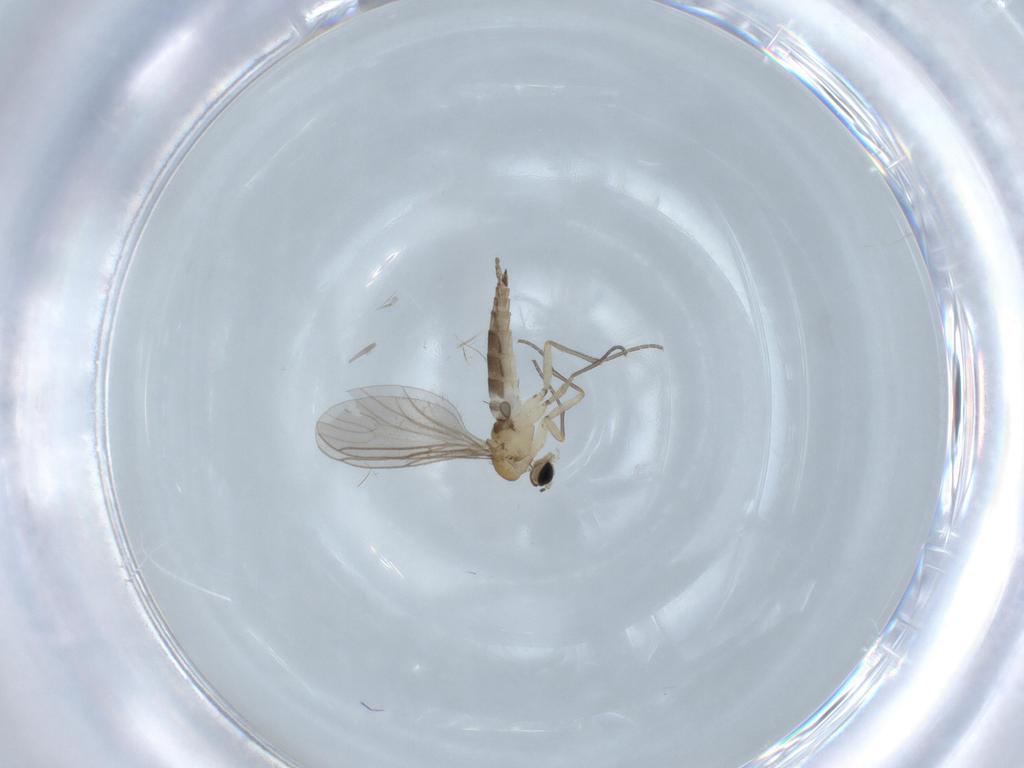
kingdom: Animalia
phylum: Arthropoda
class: Insecta
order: Diptera
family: Sciaridae
